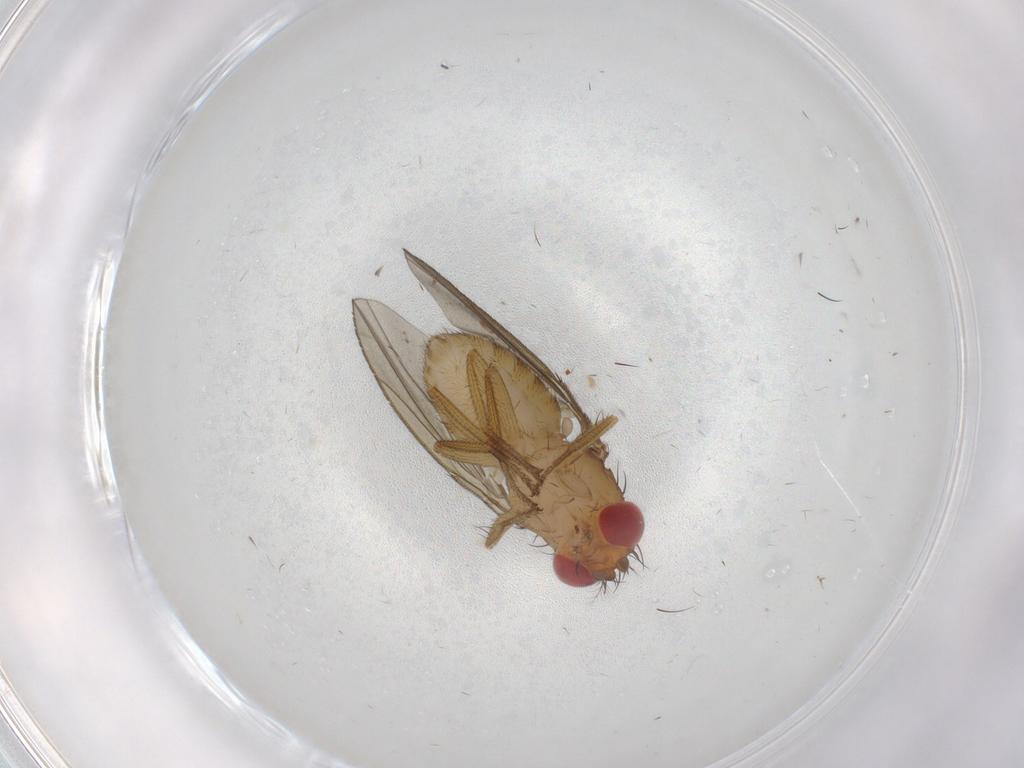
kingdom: Animalia
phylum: Arthropoda
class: Insecta
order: Diptera
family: Drosophilidae
